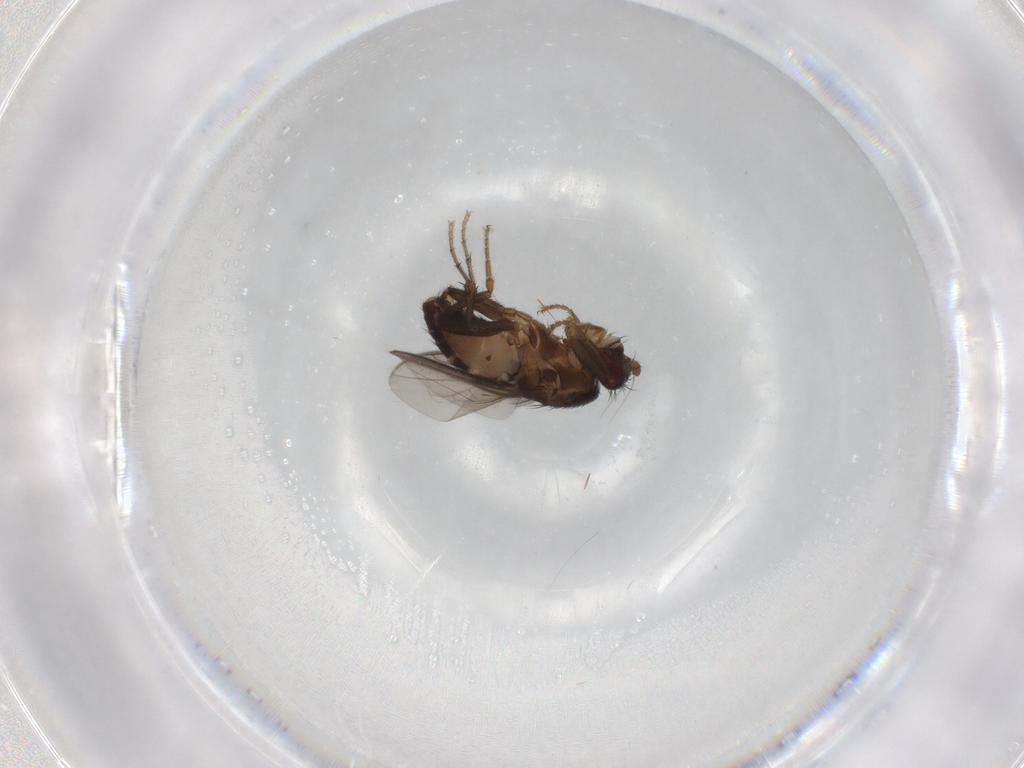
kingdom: Animalia
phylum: Arthropoda
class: Insecta
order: Diptera
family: Sphaeroceridae
